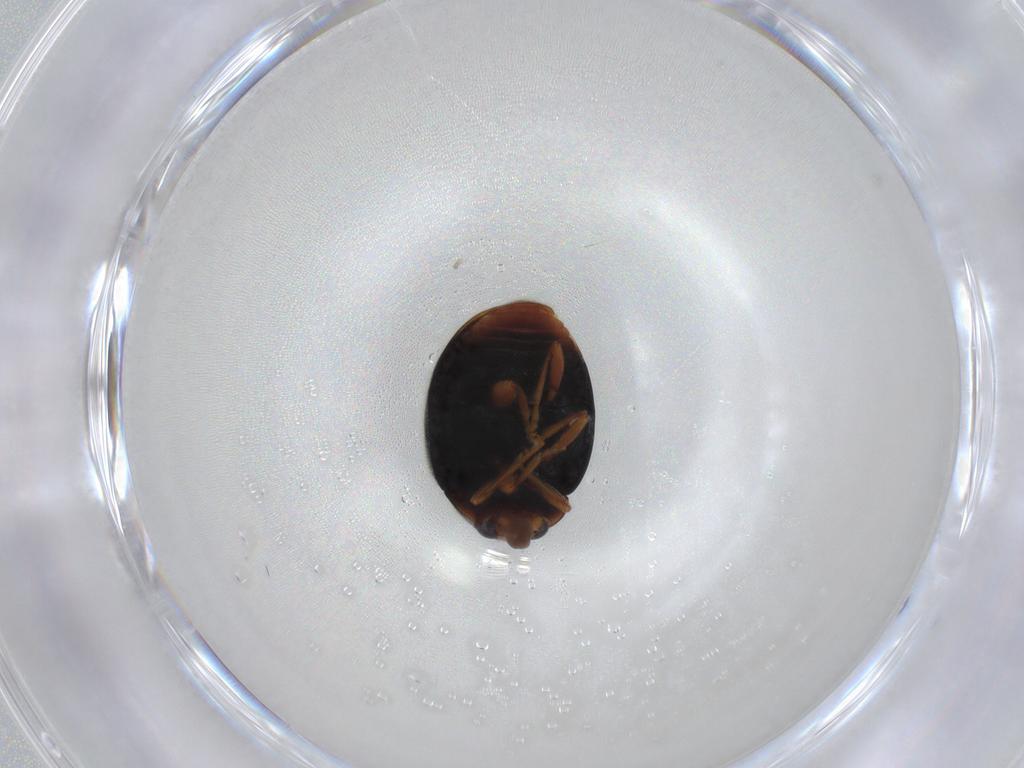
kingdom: Animalia
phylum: Arthropoda
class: Insecta
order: Coleoptera
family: Coccinellidae
